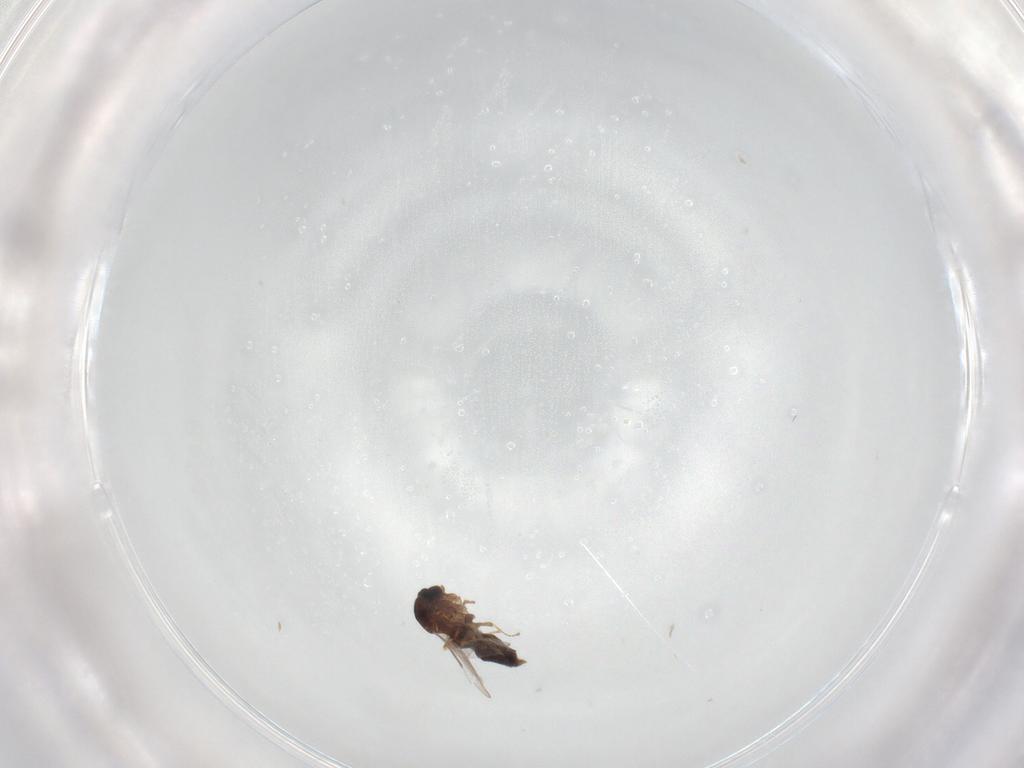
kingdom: Animalia
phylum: Arthropoda
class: Insecta
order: Diptera
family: Scatopsidae
